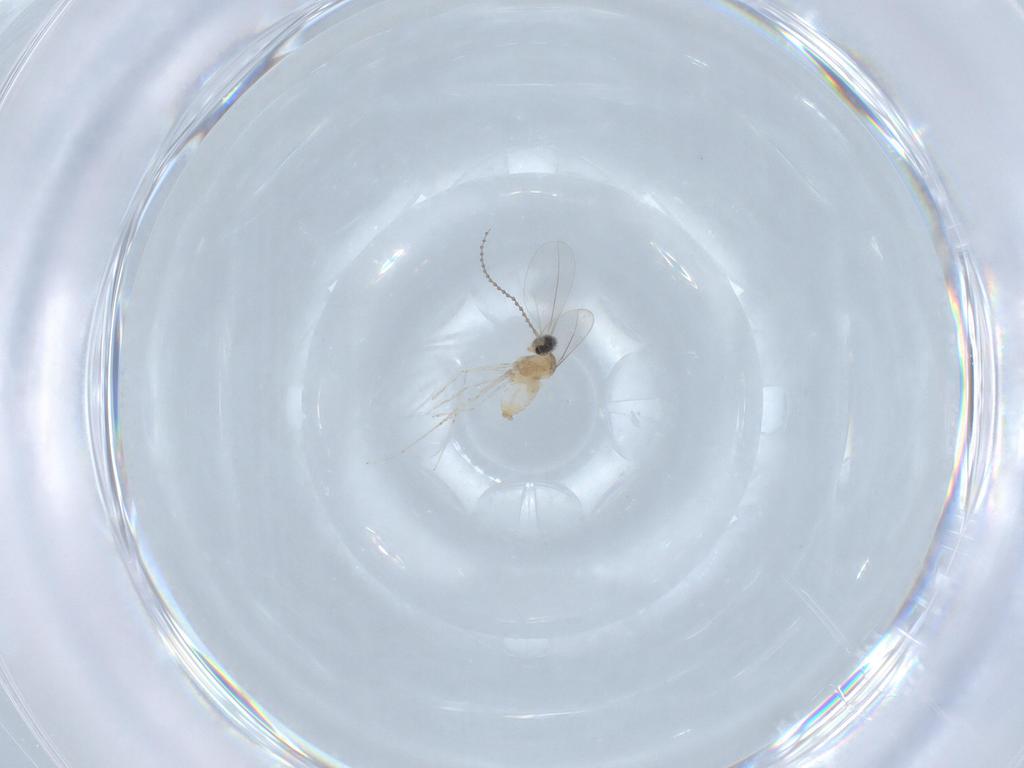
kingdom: Animalia
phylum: Arthropoda
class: Insecta
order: Diptera
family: Cecidomyiidae
